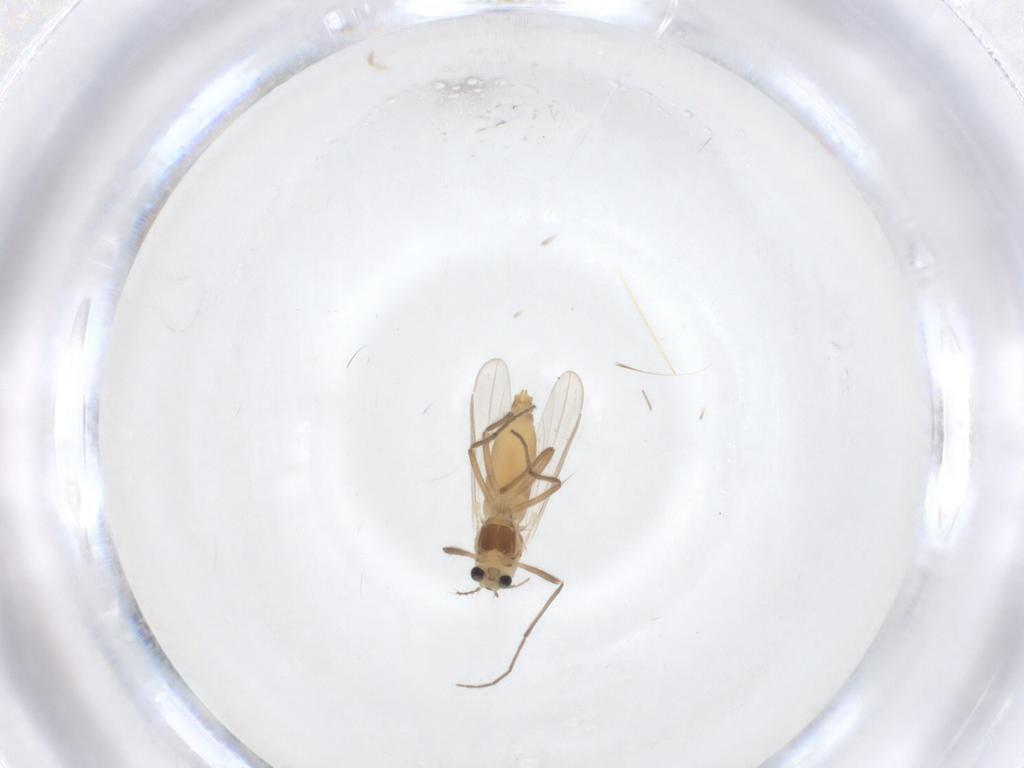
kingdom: Animalia
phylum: Arthropoda
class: Insecta
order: Diptera
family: Chironomidae
